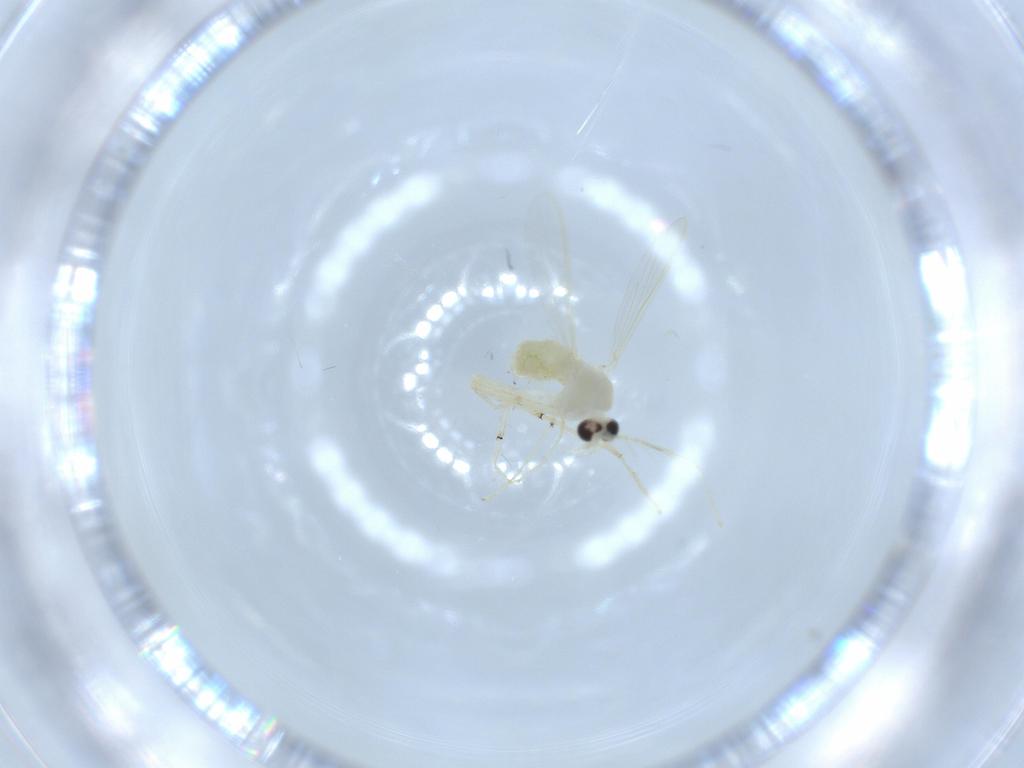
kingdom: Animalia
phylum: Arthropoda
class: Insecta
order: Diptera
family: Chironomidae
